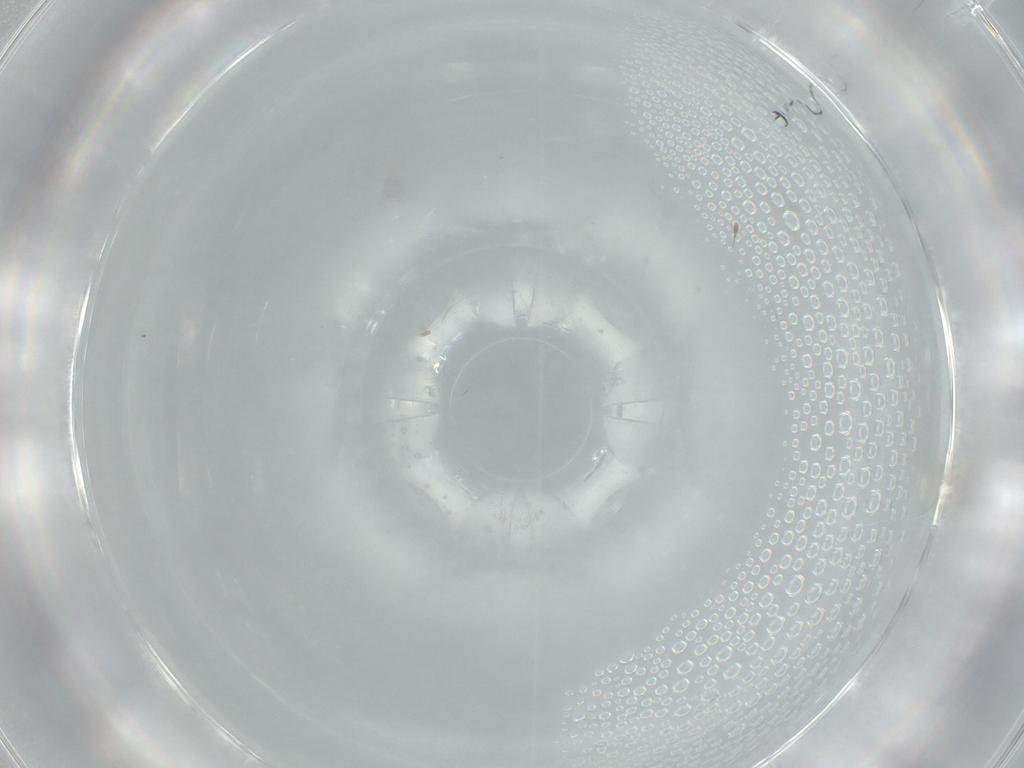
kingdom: Animalia
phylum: Arthropoda
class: Insecta
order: Diptera
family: Cecidomyiidae
